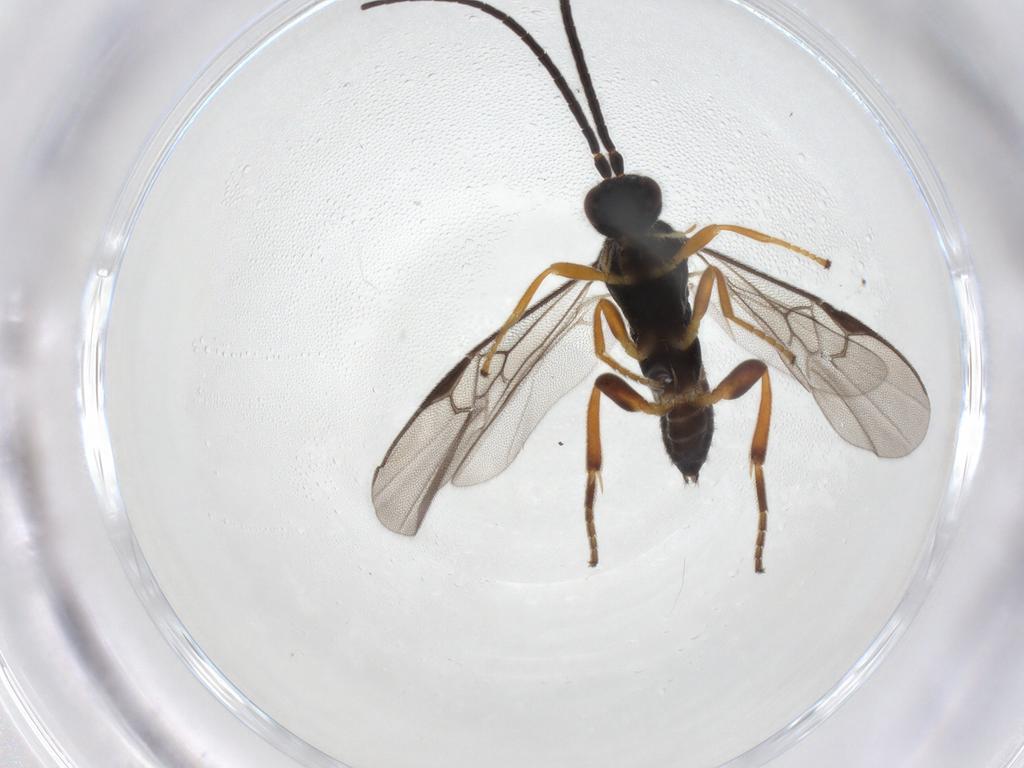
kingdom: Animalia
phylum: Arthropoda
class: Insecta
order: Hymenoptera
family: Braconidae
